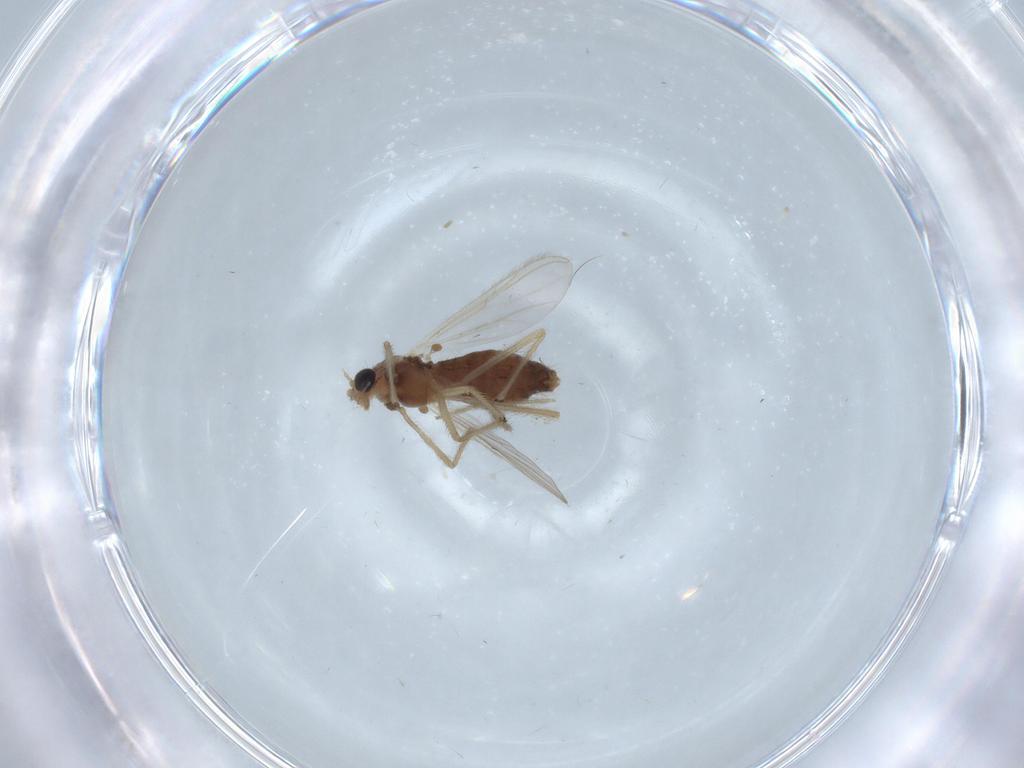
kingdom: Animalia
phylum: Arthropoda
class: Insecta
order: Diptera
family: Chironomidae
